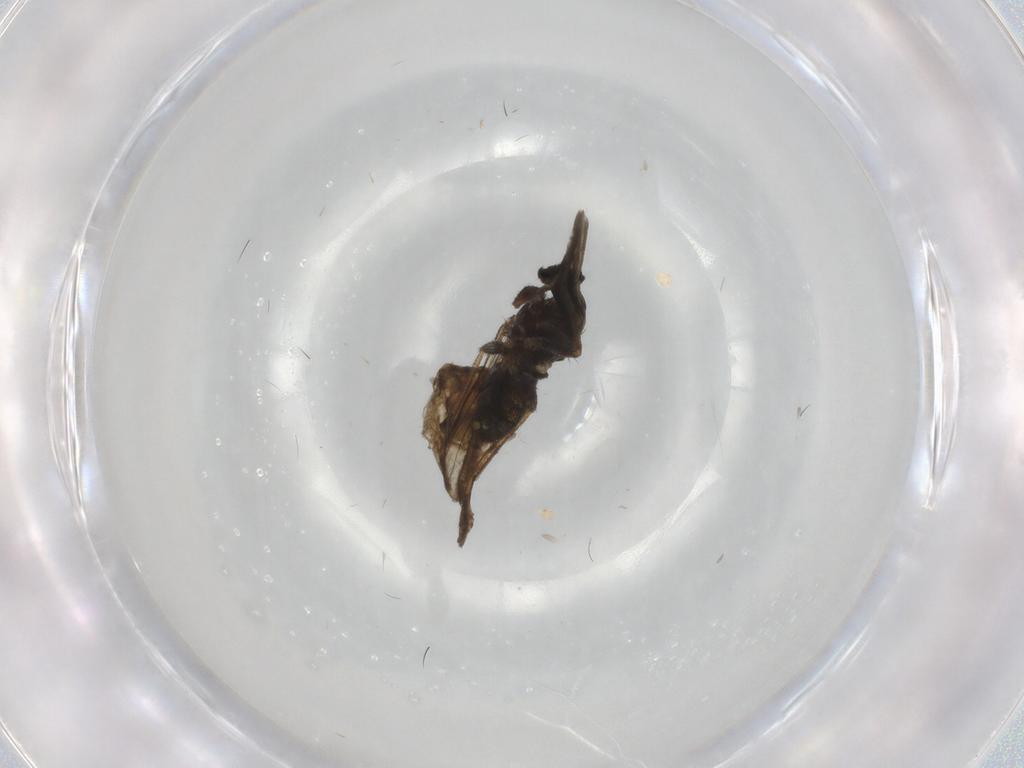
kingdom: Animalia
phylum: Arthropoda
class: Insecta
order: Diptera
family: Chironomidae
